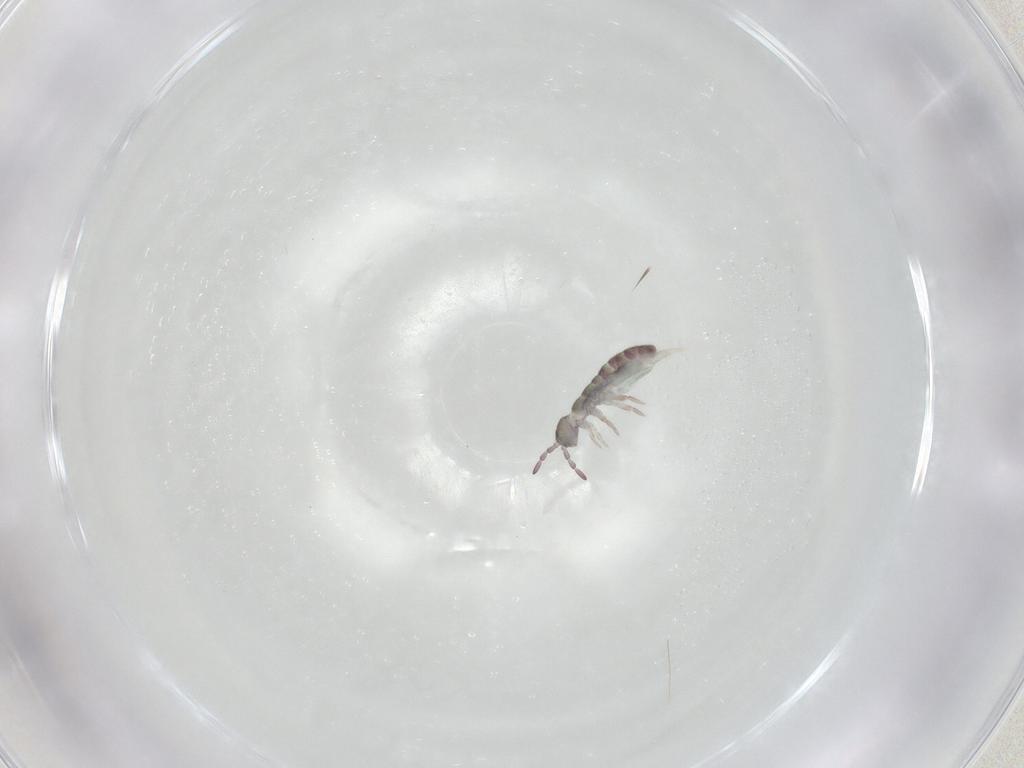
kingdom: Animalia
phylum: Arthropoda
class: Collembola
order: Entomobryomorpha
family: Isotomidae
